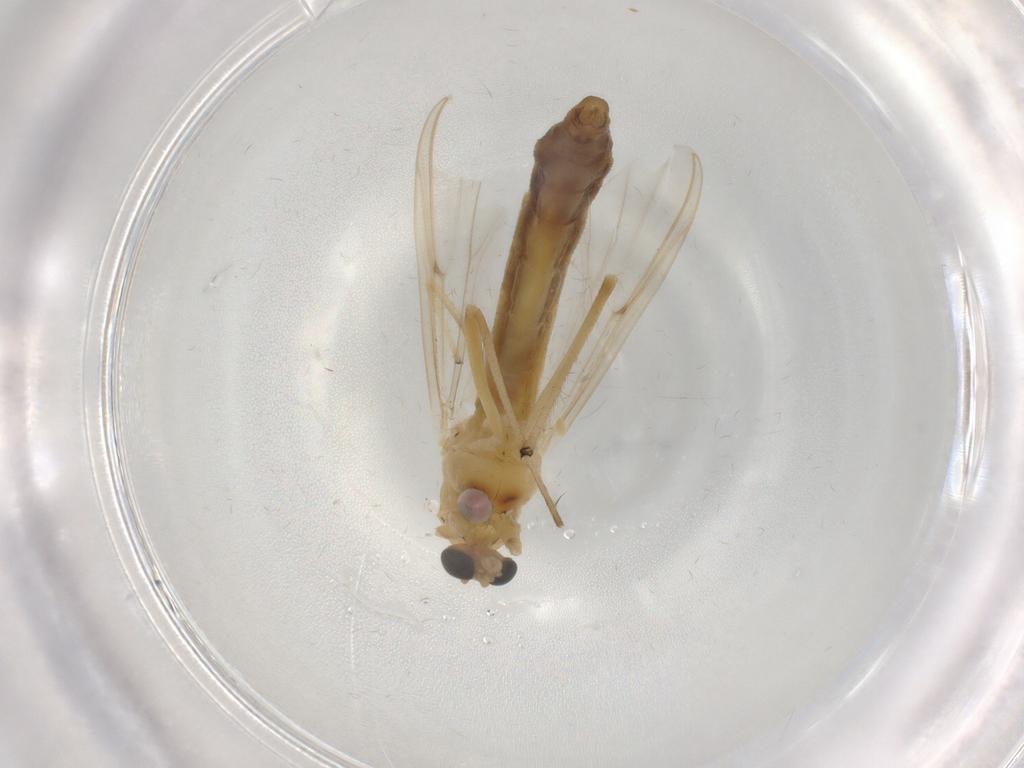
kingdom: Animalia
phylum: Arthropoda
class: Insecta
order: Diptera
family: Chironomidae
